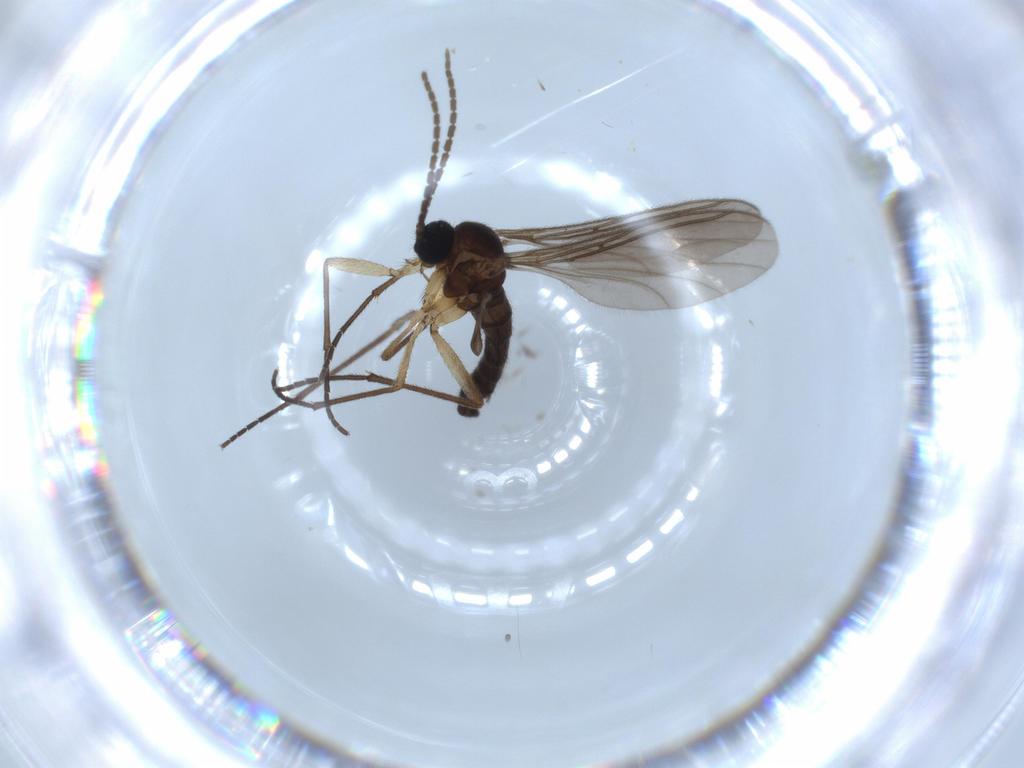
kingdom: Animalia
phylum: Arthropoda
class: Insecta
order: Diptera
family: Sciaridae
